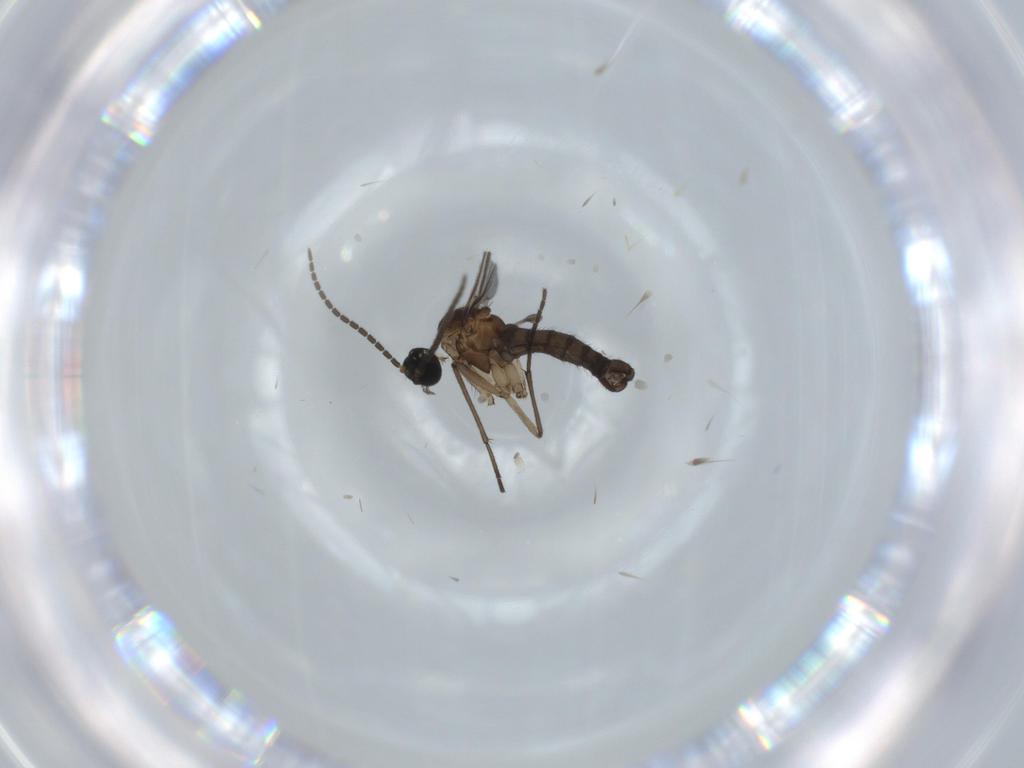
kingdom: Animalia
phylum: Arthropoda
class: Insecta
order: Diptera
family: Sciaridae
